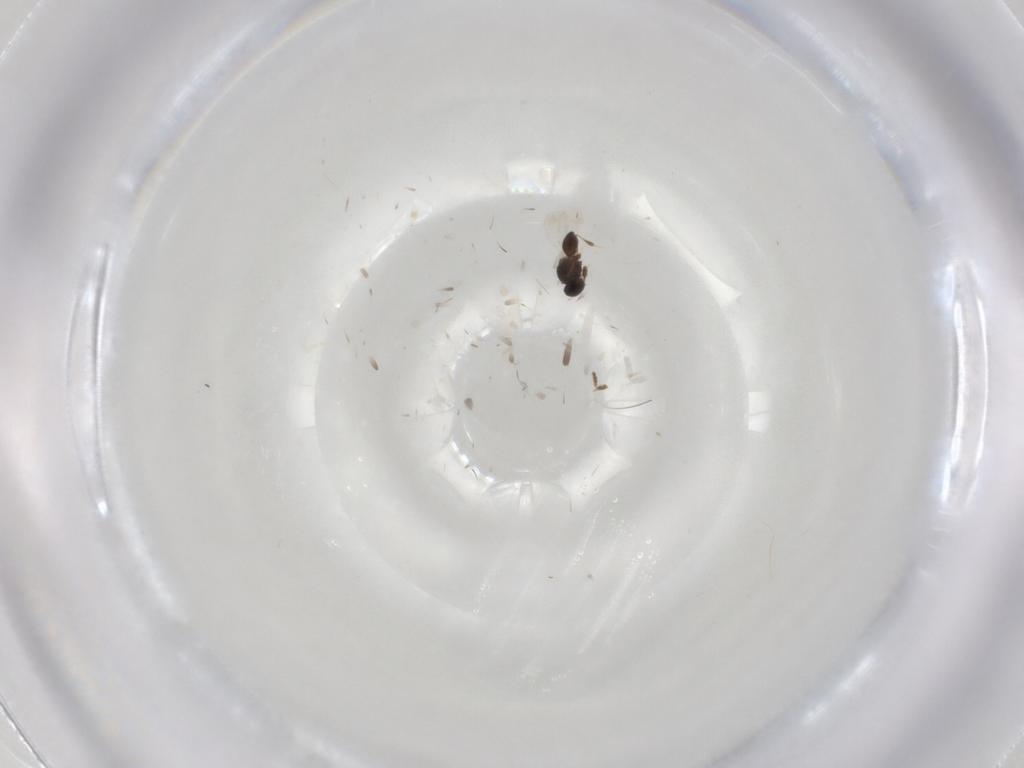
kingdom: Animalia
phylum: Arthropoda
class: Insecta
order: Hymenoptera
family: Platygastridae
